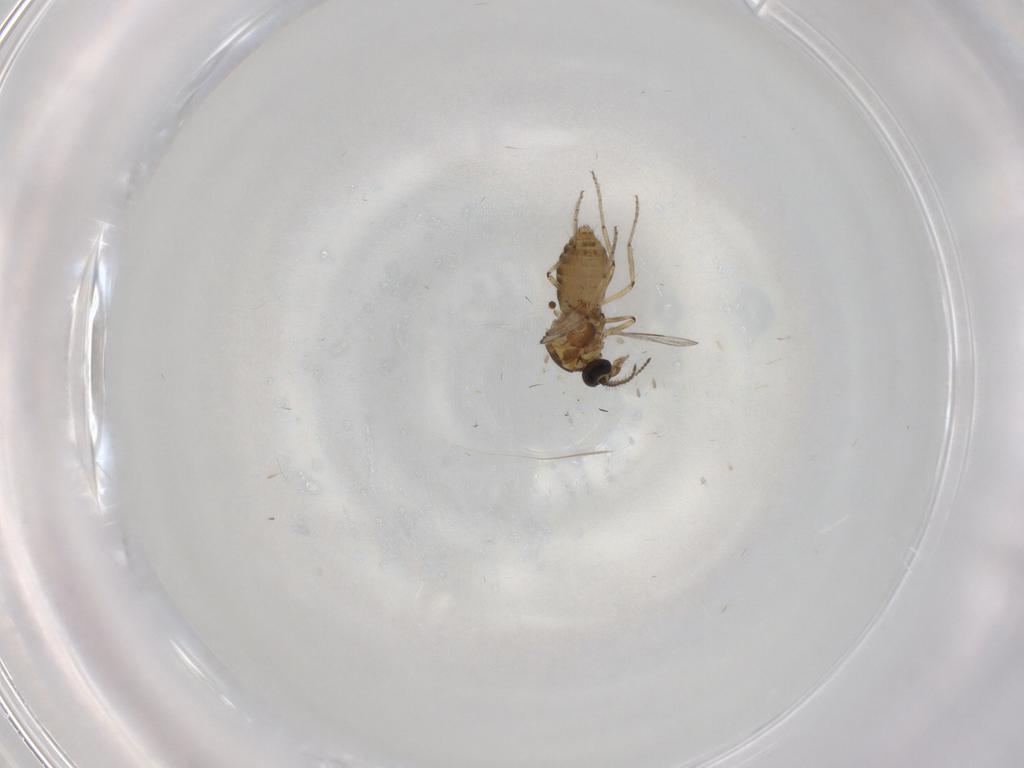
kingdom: Animalia
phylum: Arthropoda
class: Insecta
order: Diptera
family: Ceratopogonidae
